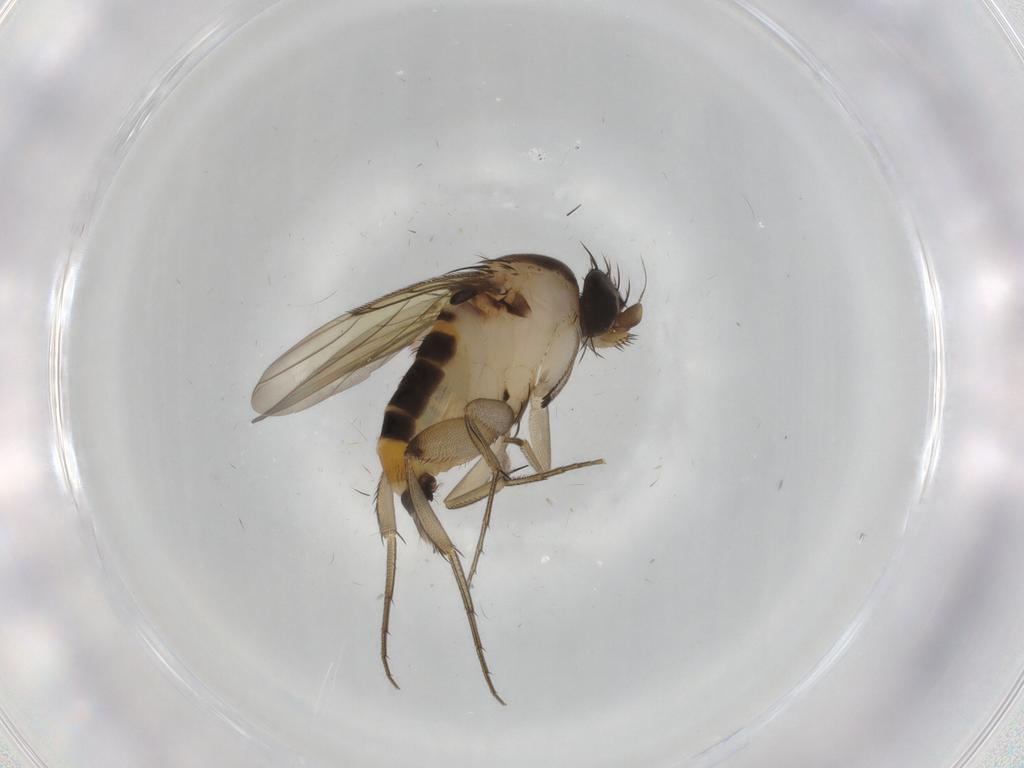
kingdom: Animalia
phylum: Arthropoda
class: Insecta
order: Diptera
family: Phoridae
